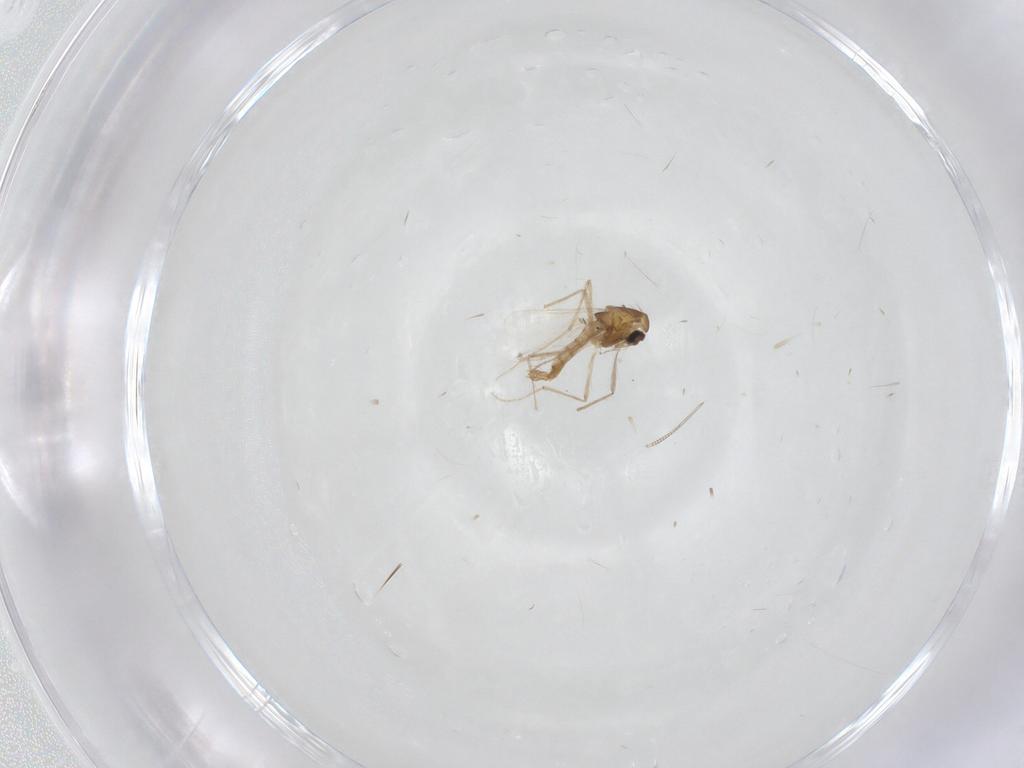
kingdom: Animalia
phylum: Arthropoda
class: Insecta
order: Diptera
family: Chironomidae
